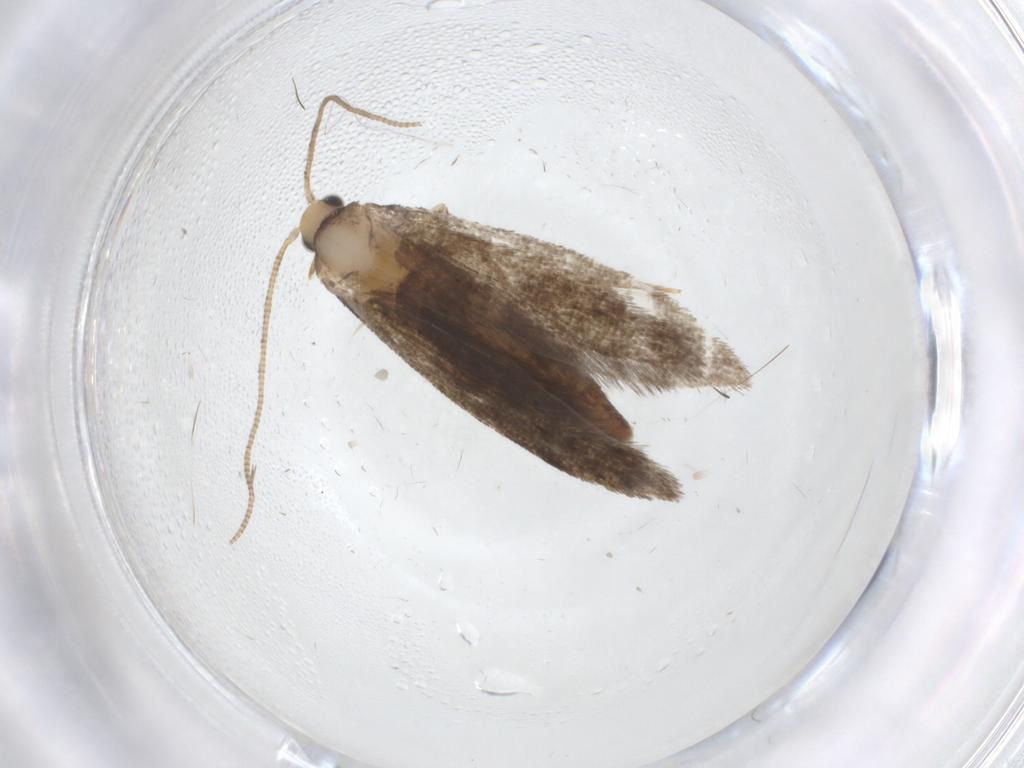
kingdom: Animalia
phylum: Arthropoda
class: Insecta
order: Lepidoptera
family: Tineidae
